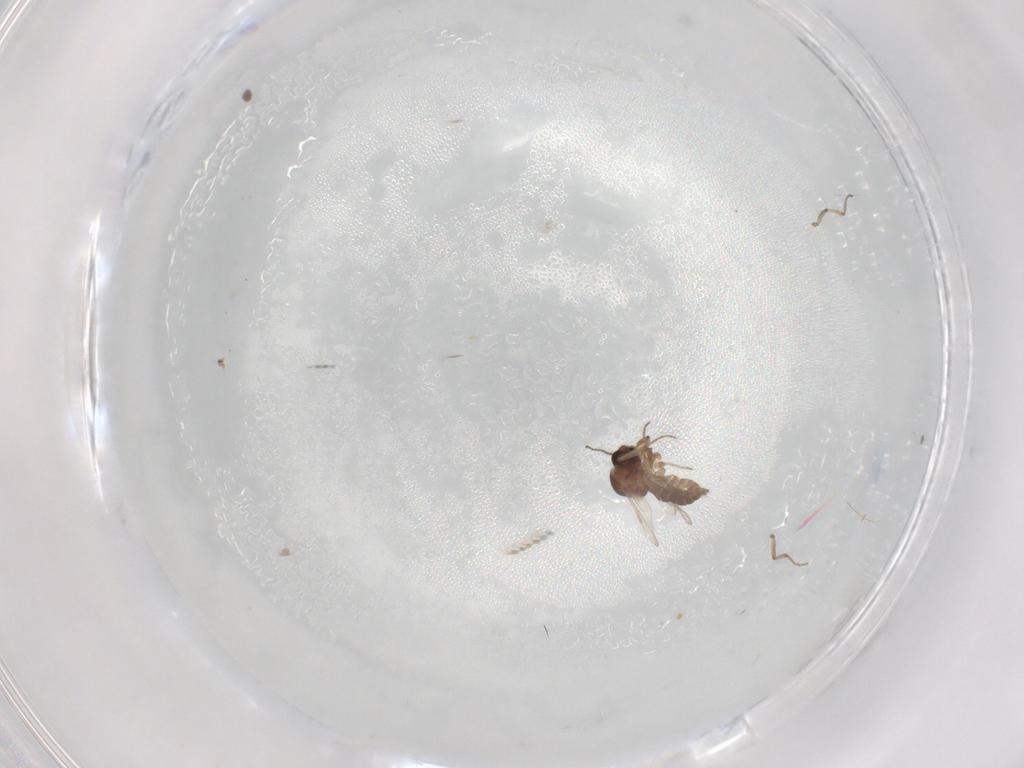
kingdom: Animalia
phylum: Arthropoda
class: Insecta
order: Diptera
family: Ceratopogonidae
